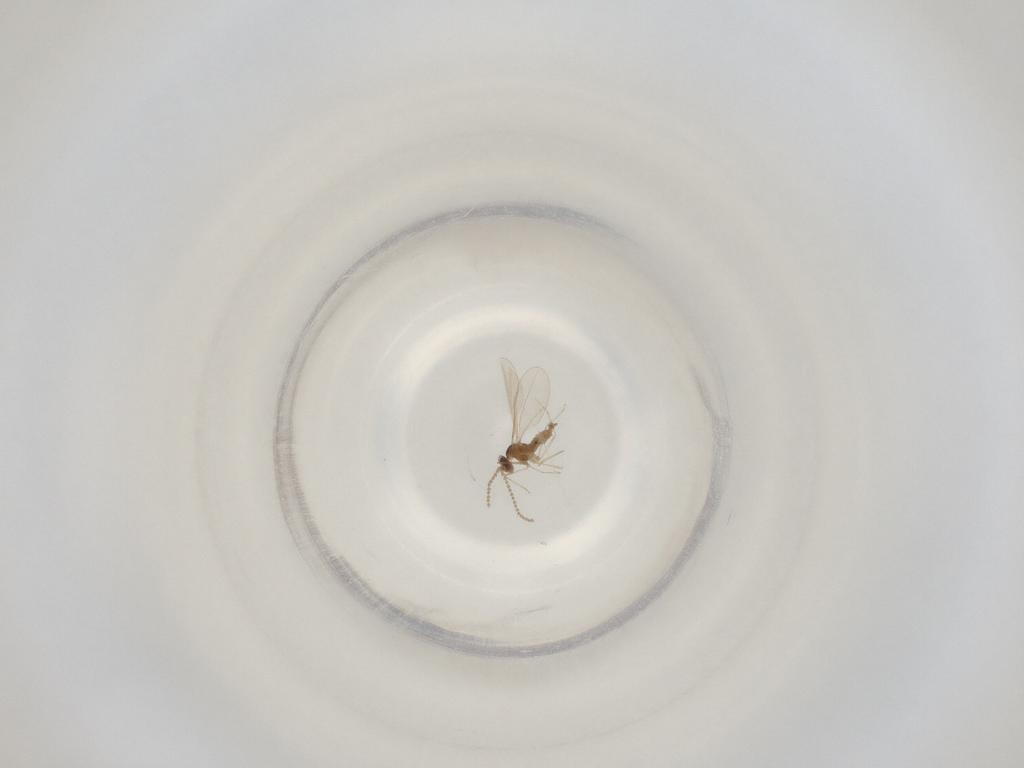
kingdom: Animalia
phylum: Arthropoda
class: Insecta
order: Diptera
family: Cecidomyiidae
